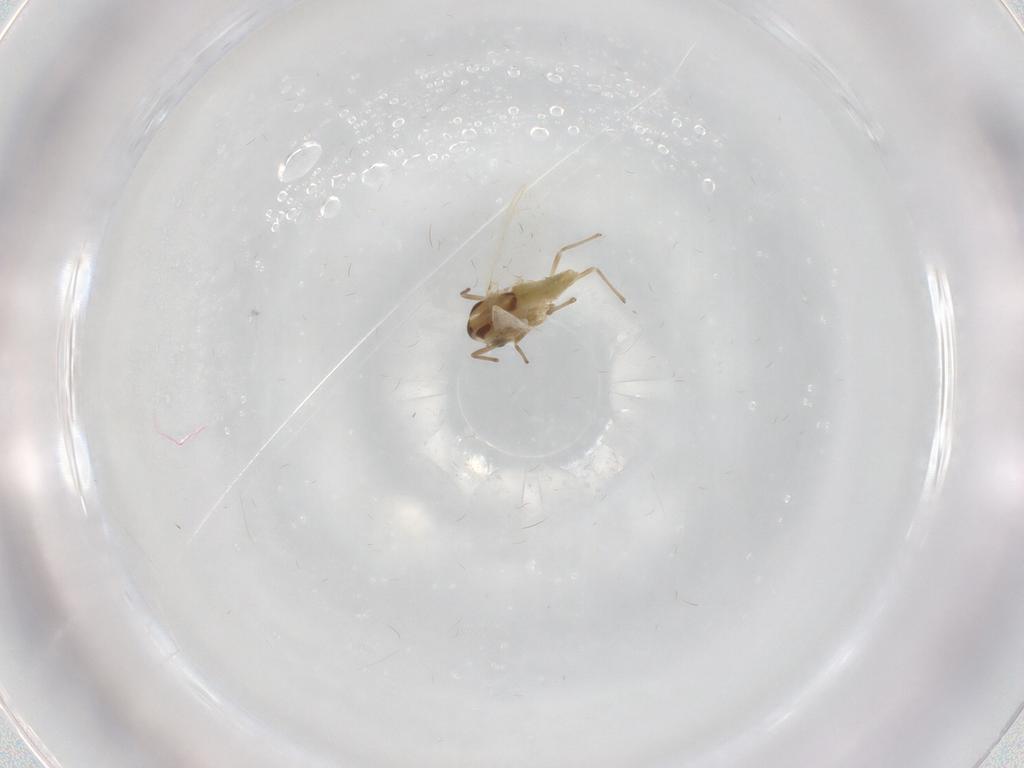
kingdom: Animalia
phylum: Arthropoda
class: Insecta
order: Diptera
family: Chironomidae
